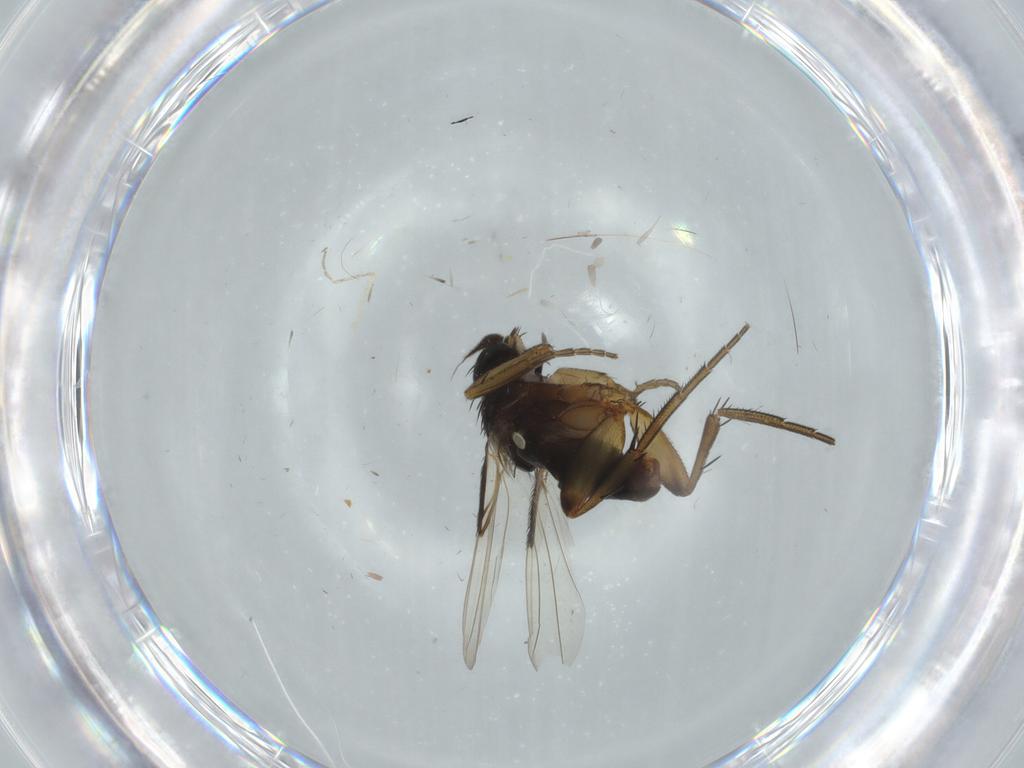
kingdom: Animalia
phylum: Arthropoda
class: Insecta
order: Diptera
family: Phoridae
